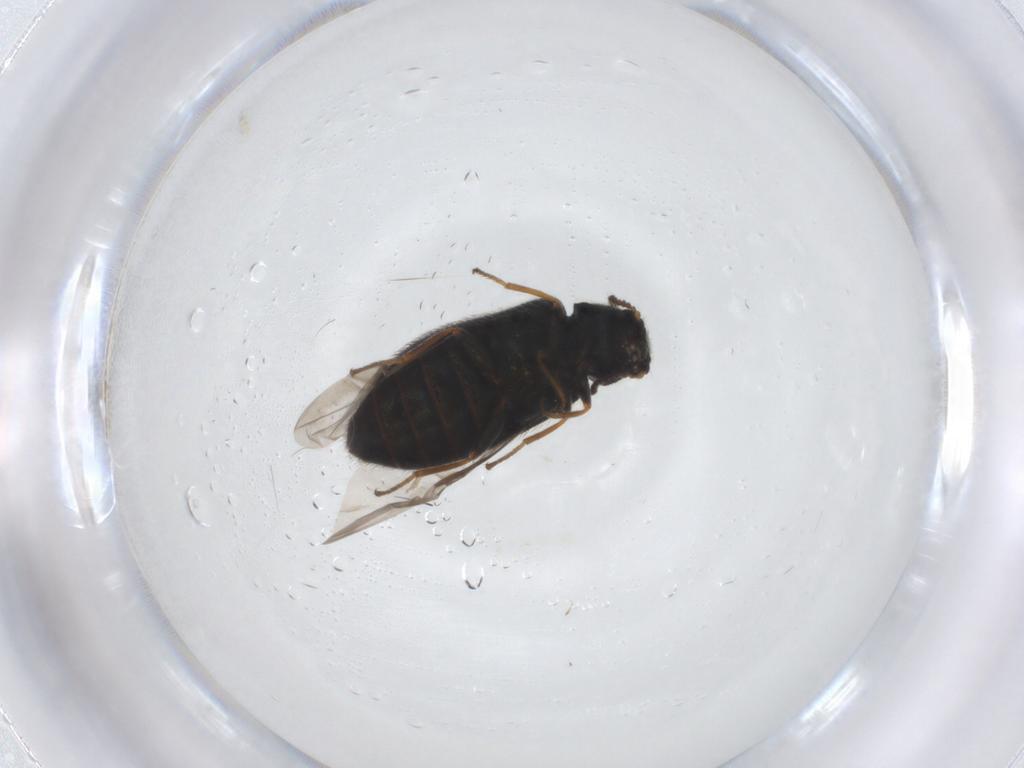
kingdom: Animalia
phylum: Arthropoda
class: Insecta
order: Coleoptera
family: Melyridae
